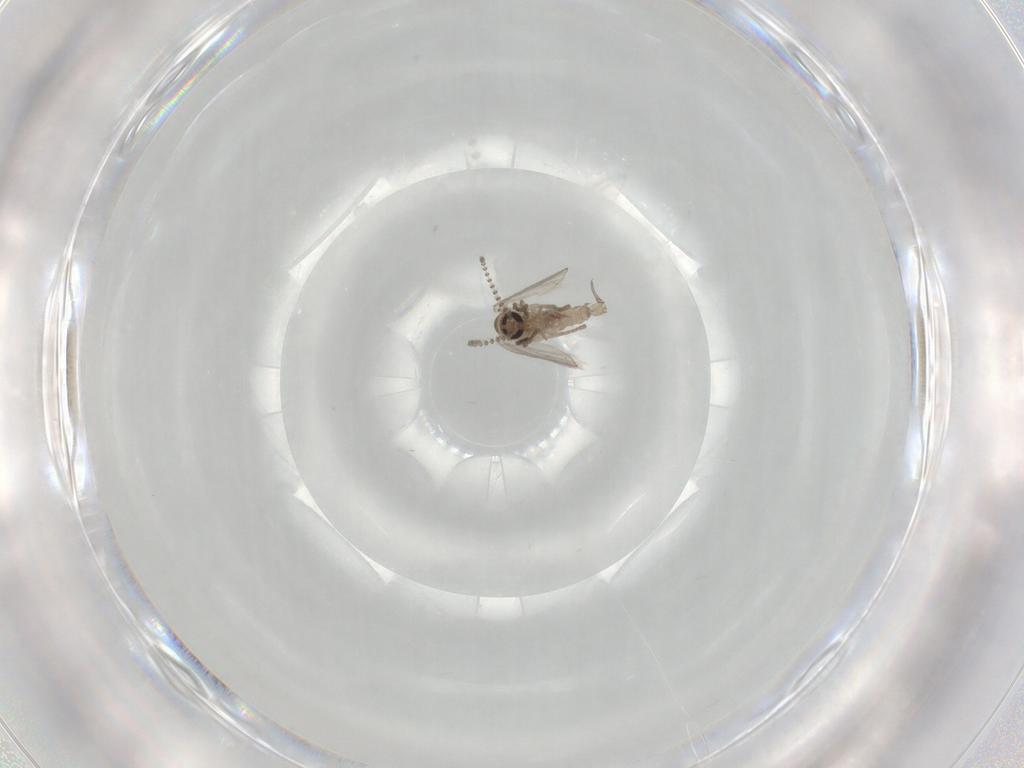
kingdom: Animalia
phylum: Arthropoda
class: Insecta
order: Diptera
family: Psychodidae
